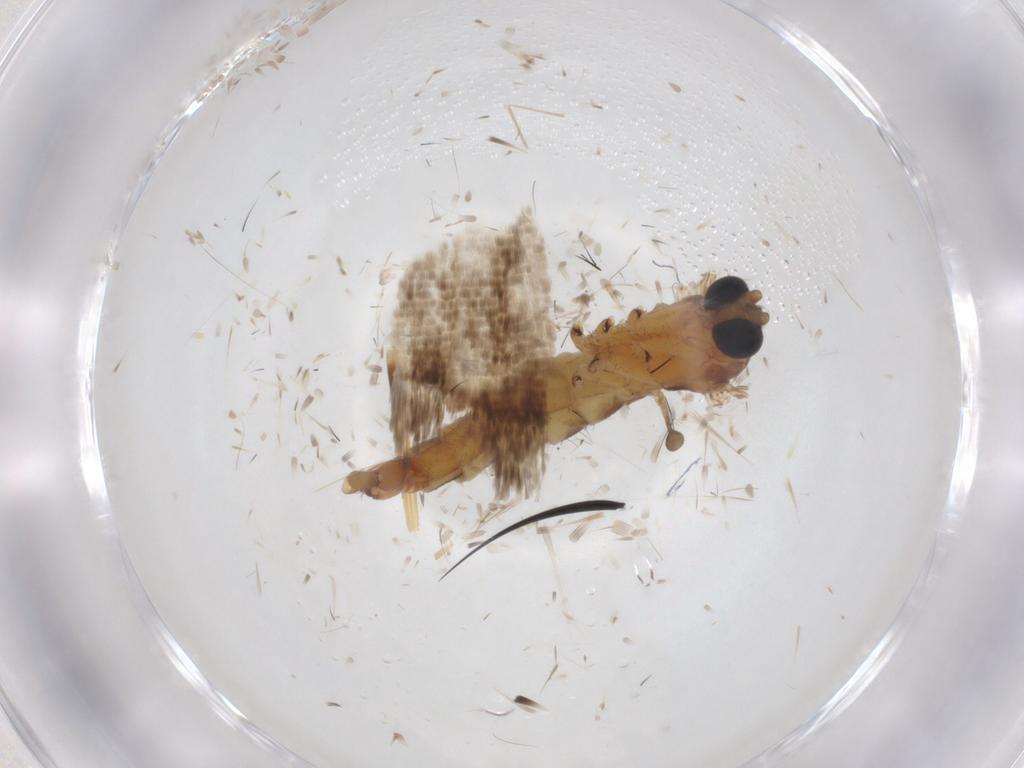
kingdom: Animalia
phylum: Arthropoda
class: Insecta
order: Diptera
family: Sciaridae
